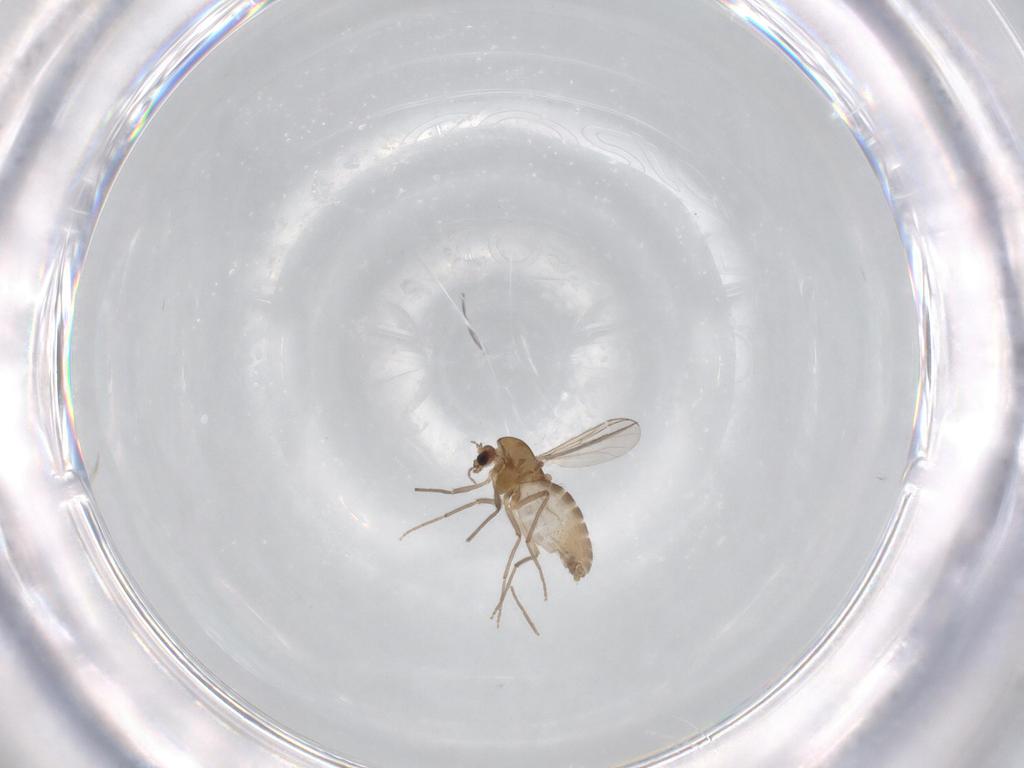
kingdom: Animalia
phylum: Arthropoda
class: Insecta
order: Diptera
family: Chironomidae
